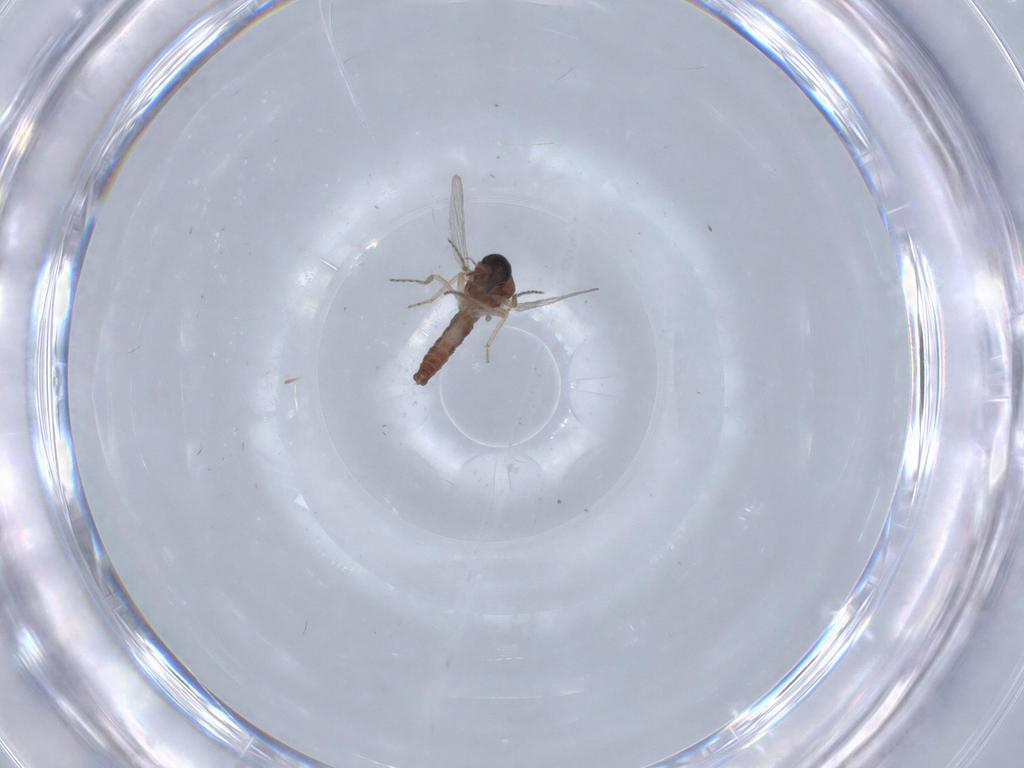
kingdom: Animalia
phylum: Arthropoda
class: Insecta
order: Diptera
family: Ceratopogonidae
